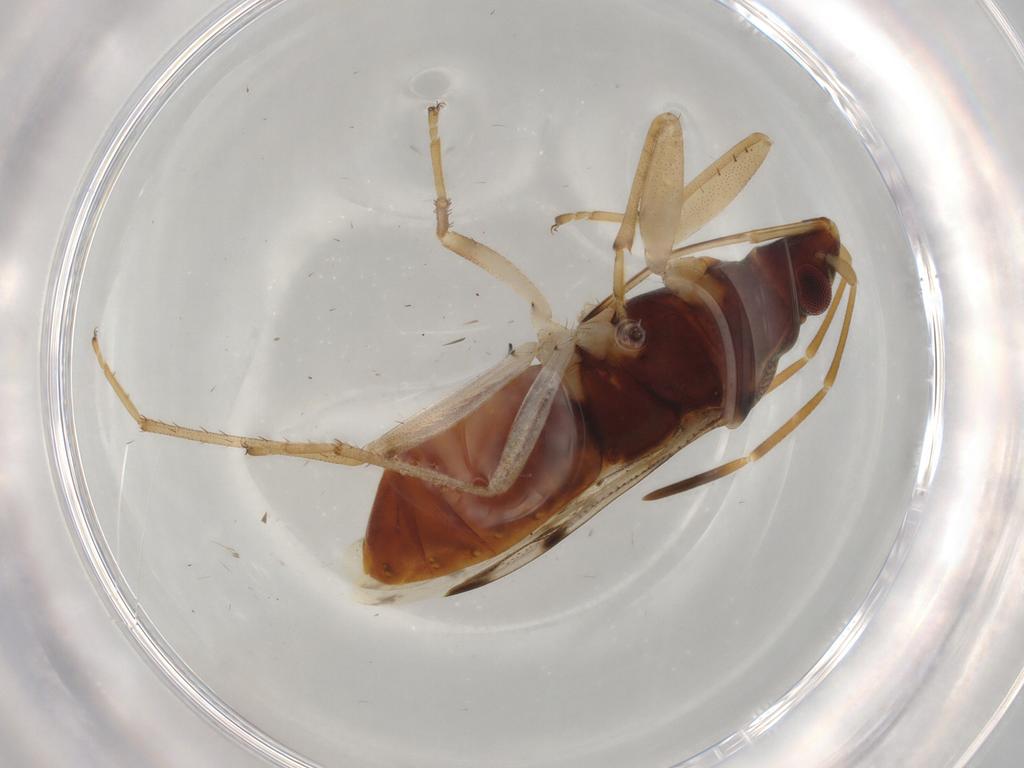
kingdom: Animalia
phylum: Arthropoda
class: Insecta
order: Hemiptera
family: Rhyparochromidae
